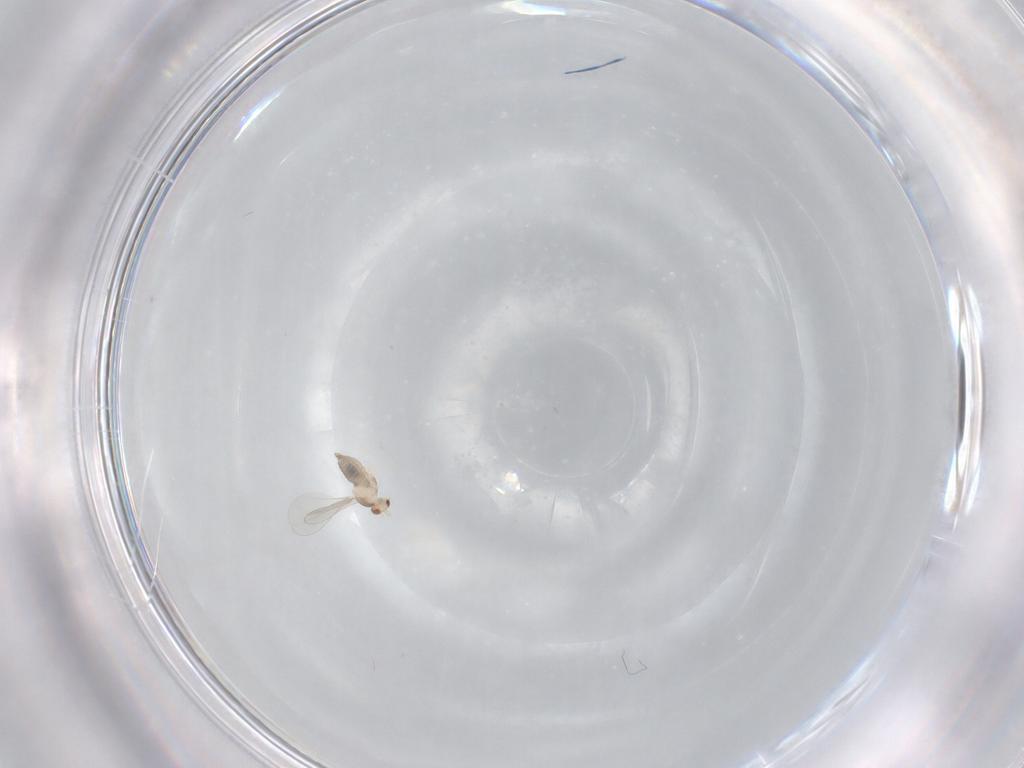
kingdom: Animalia
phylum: Arthropoda
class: Insecta
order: Diptera
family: Cecidomyiidae
